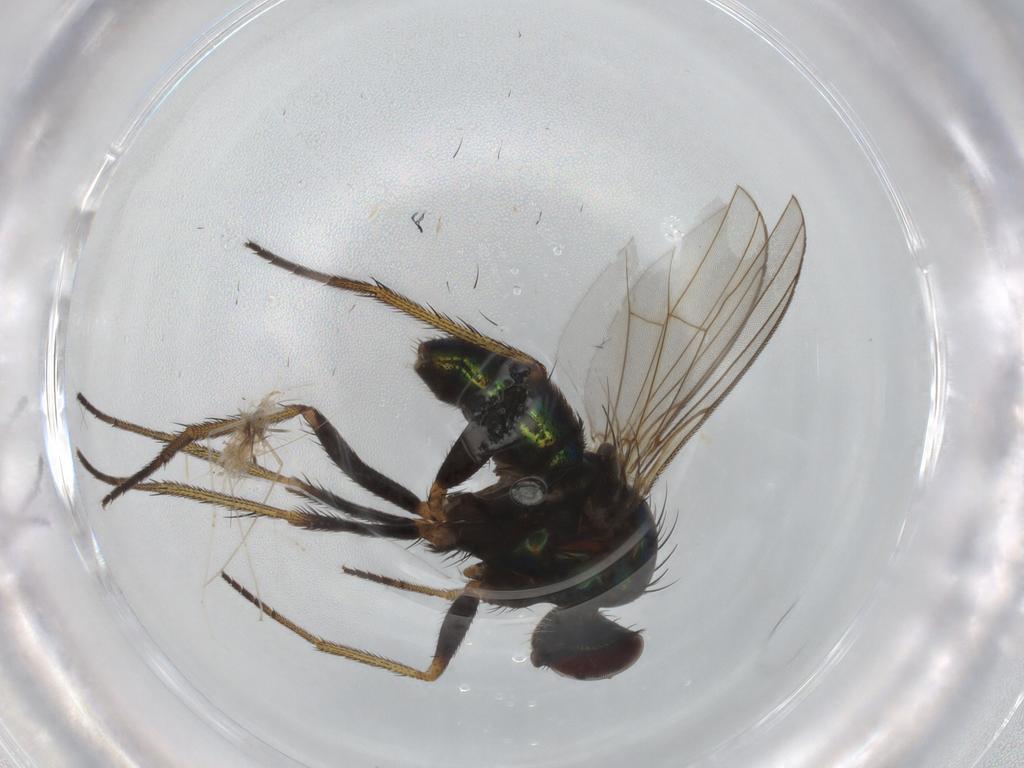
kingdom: Animalia
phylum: Arthropoda
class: Insecta
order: Diptera
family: Dolichopodidae
